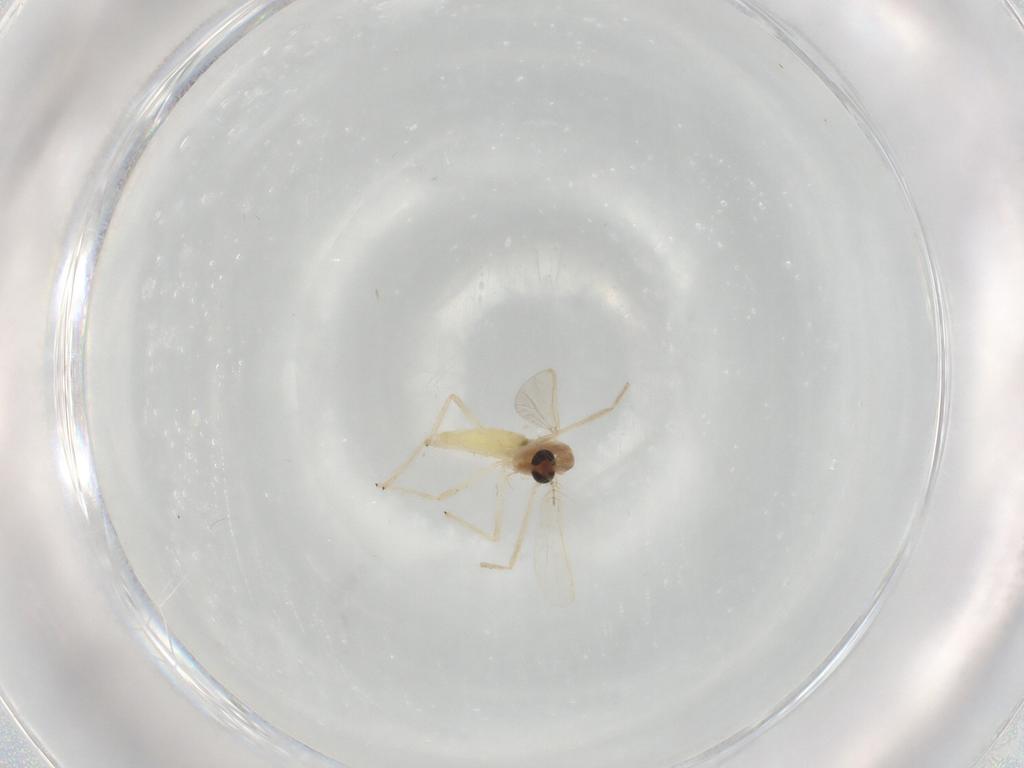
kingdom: Animalia
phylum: Arthropoda
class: Insecta
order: Diptera
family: Chironomidae
